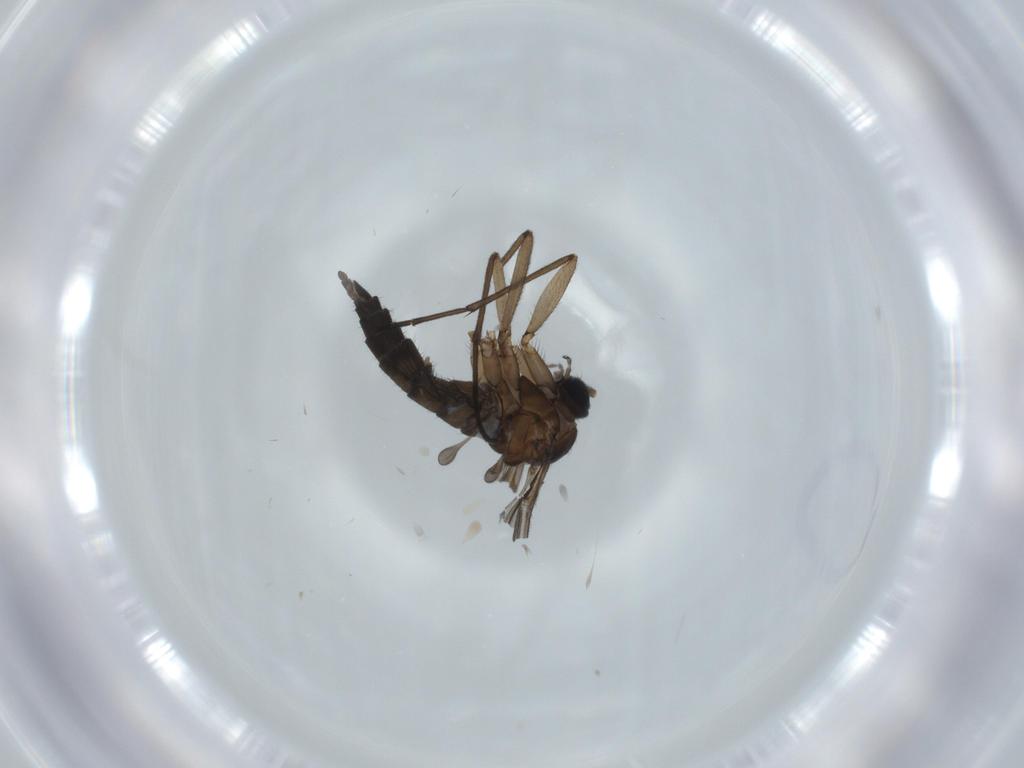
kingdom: Animalia
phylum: Arthropoda
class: Insecta
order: Diptera
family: Sciaridae
